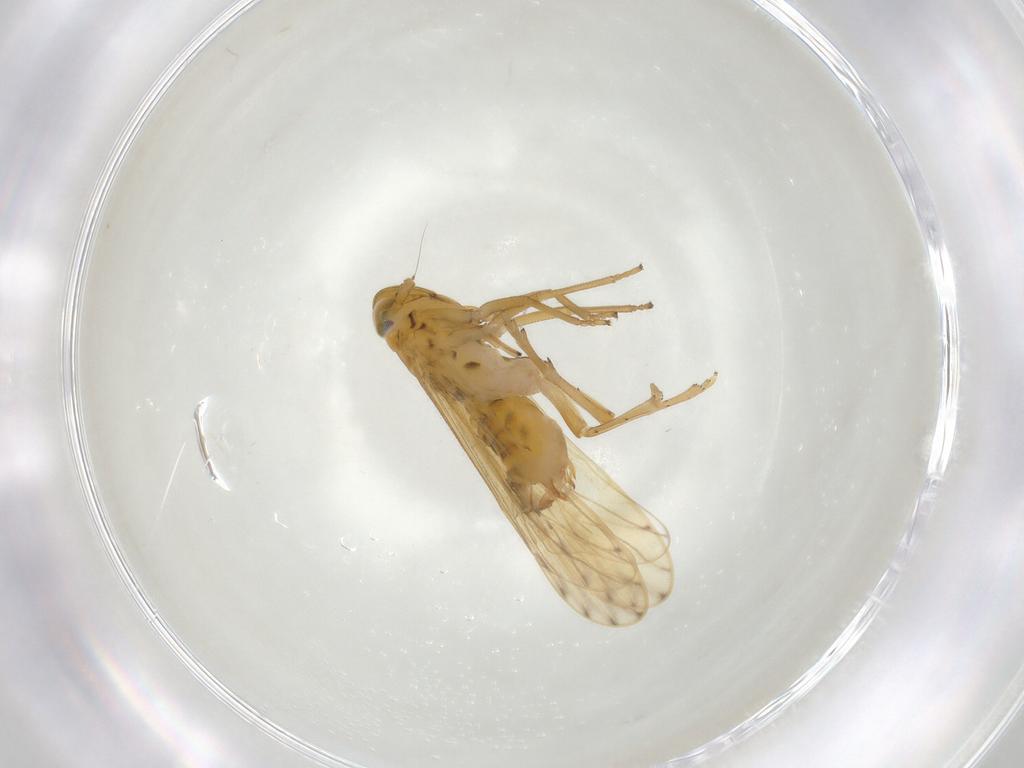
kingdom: Animalia
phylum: Arthropoda
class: Insecta
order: Hemiptera
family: Delphacidae
